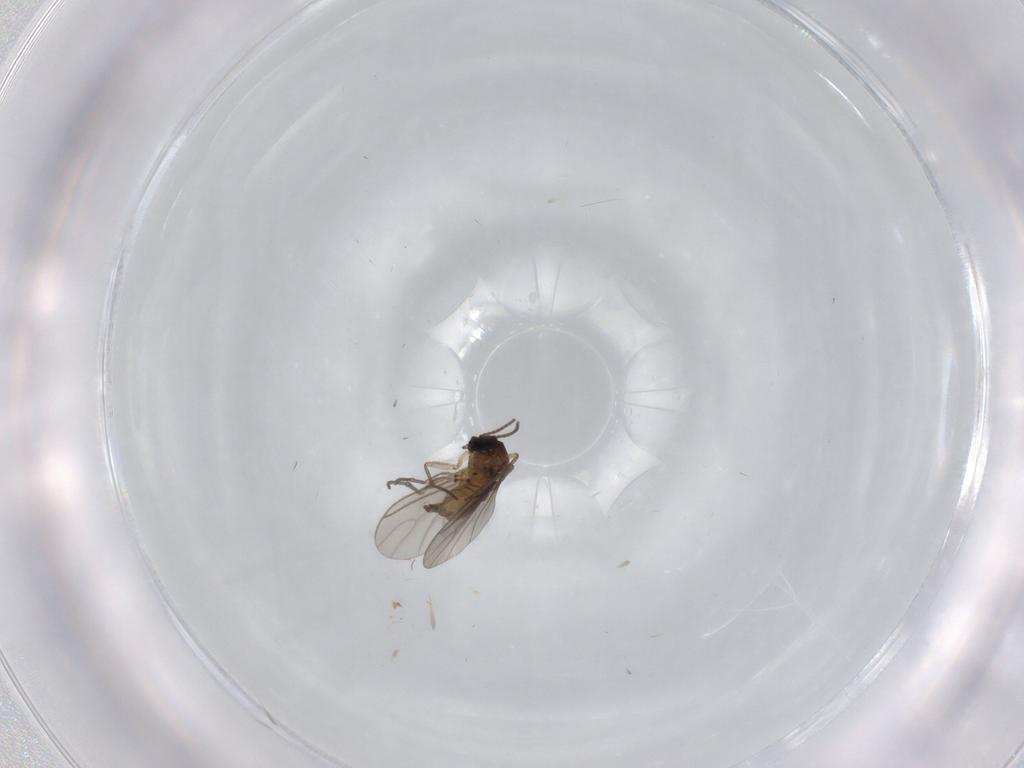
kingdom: Animalia
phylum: Arthropoda
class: Insecta
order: Diptera
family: Sciaridae
